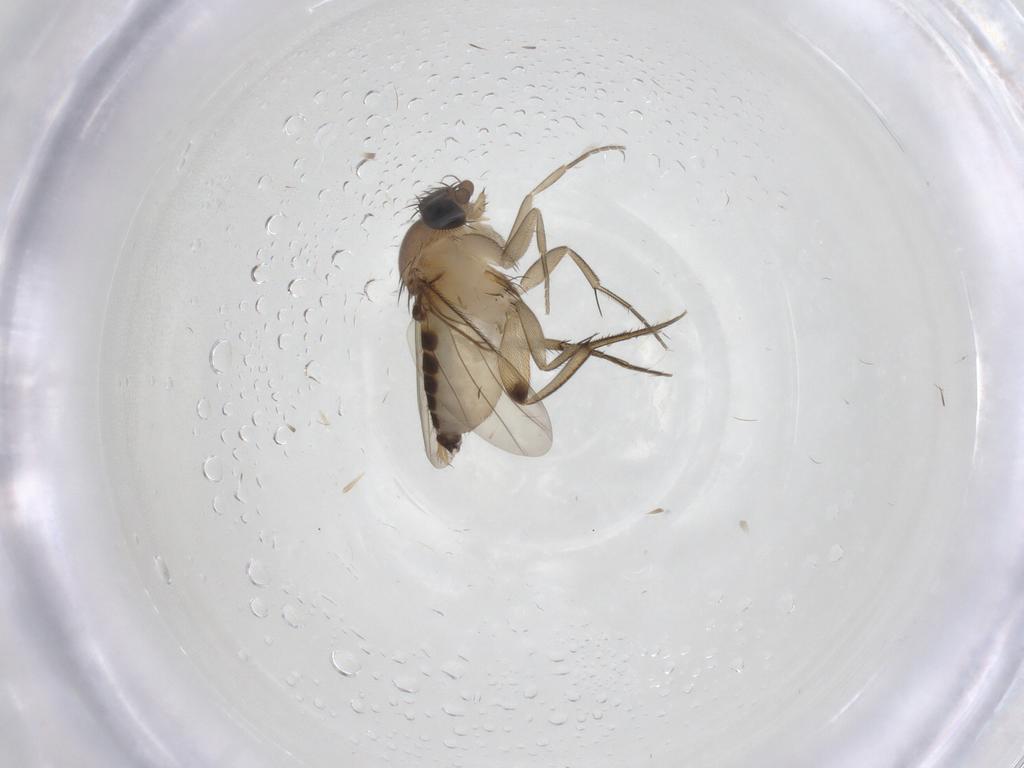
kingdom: Animalia
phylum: Arthropoda
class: Insecta
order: Diptera
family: Phoridae
